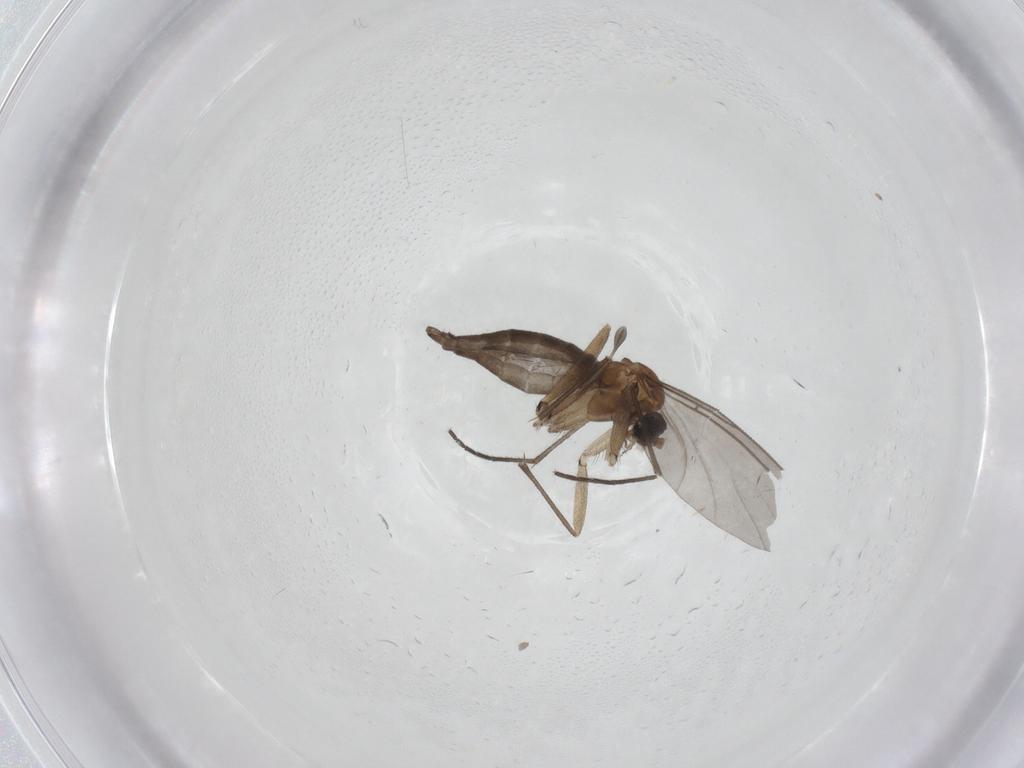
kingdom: Animalia
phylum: Arthropoda
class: Insecta
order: Diptera
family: Sciaridae
